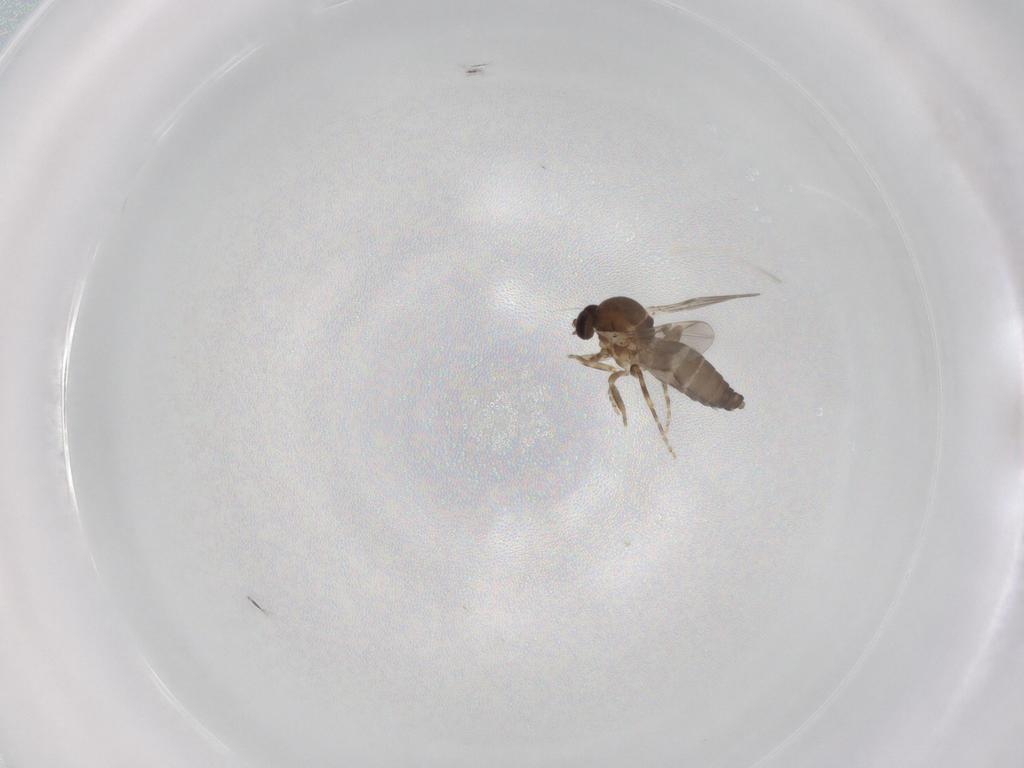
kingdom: Animalia
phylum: Arthropoda
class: Insecta
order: Diptera
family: Ceratopogonidae
